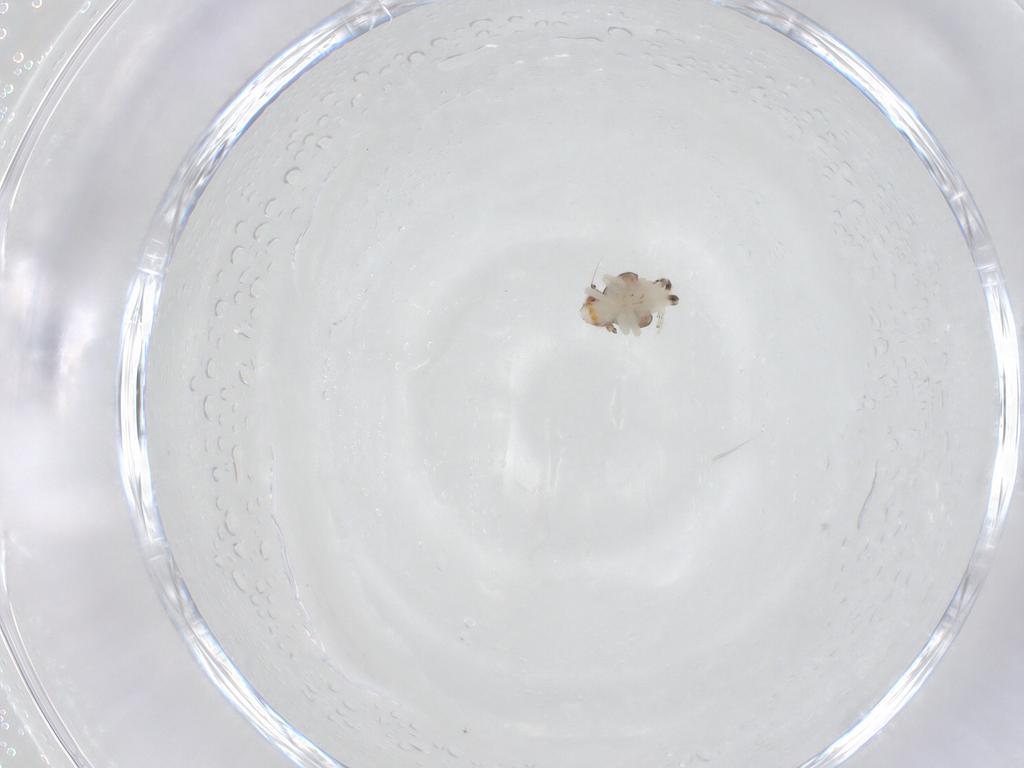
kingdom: Animalia
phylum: Arthropoda
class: Insecta
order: Hemiptera
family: Nogodinidae
